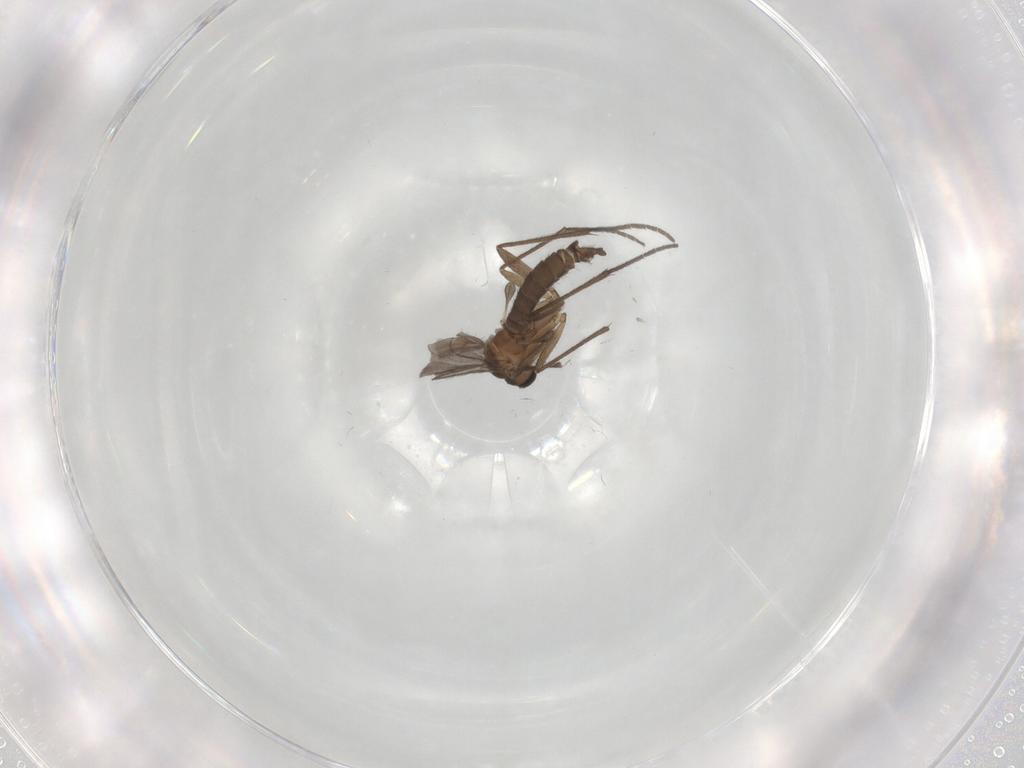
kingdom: Animalia
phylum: Arthropoda
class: Insecta
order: Diptera
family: Sciaridae
